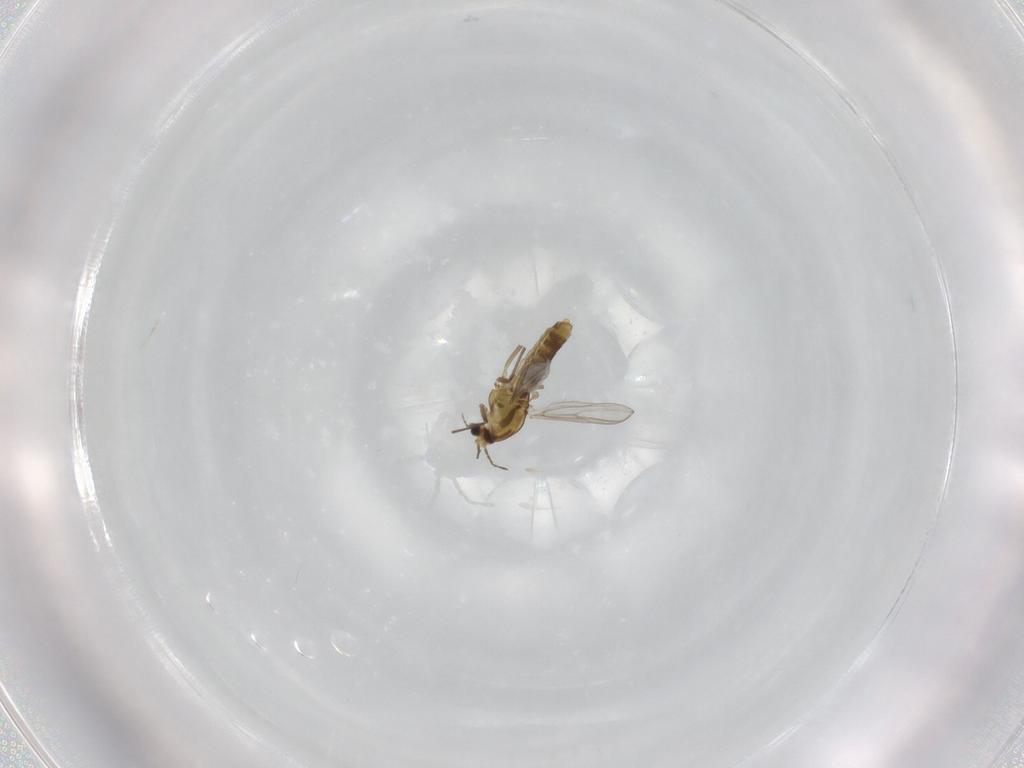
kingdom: Animalia
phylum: Arthropoda
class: Insecta
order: Diptera
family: Chironomidae
